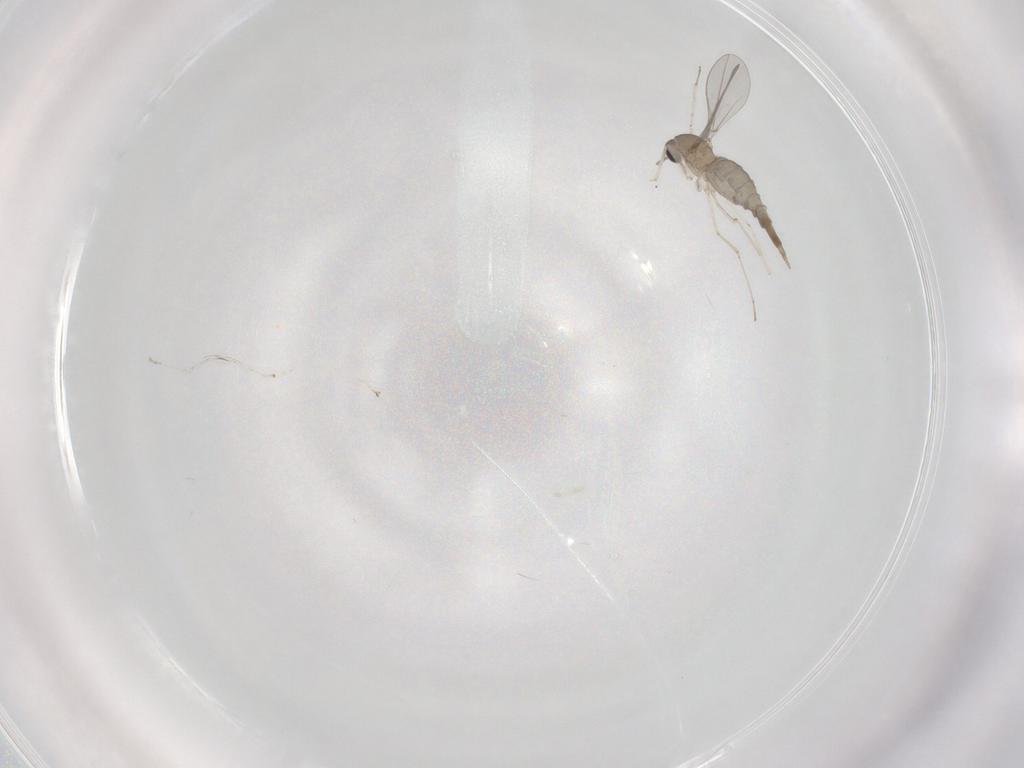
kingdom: Animalia
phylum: Arthropoda
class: Insecta
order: Diptera
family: Cecidomyiidae
